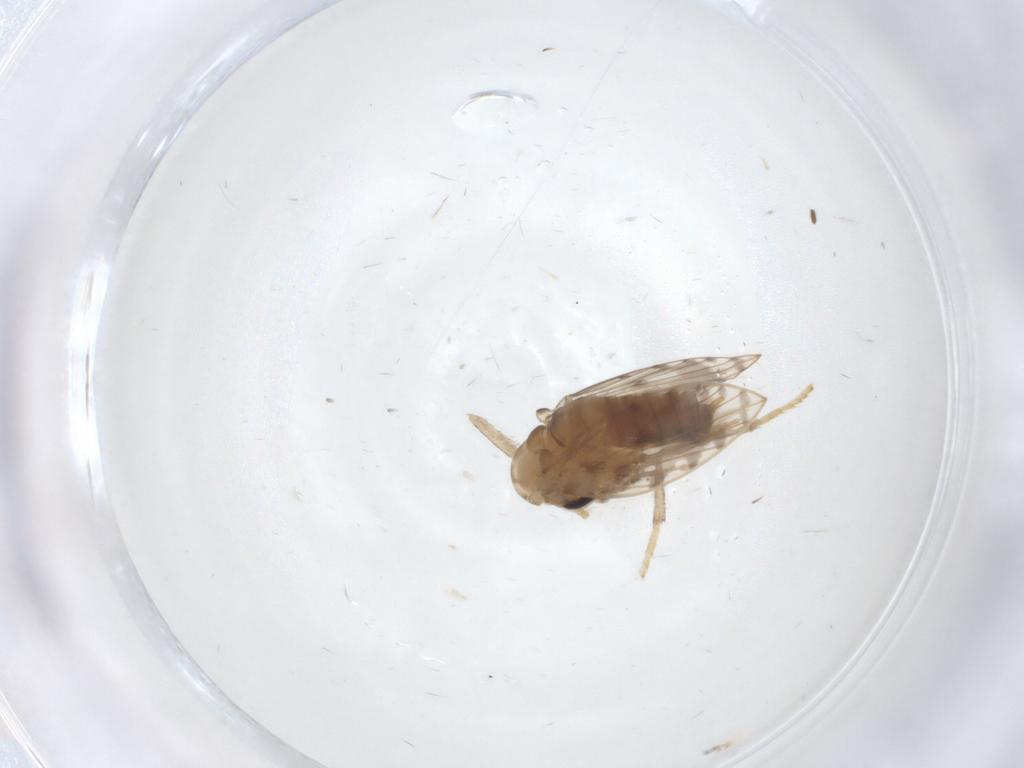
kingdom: Animalia
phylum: Arthropoda
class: Insecta
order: Diptera
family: Psychodidae
